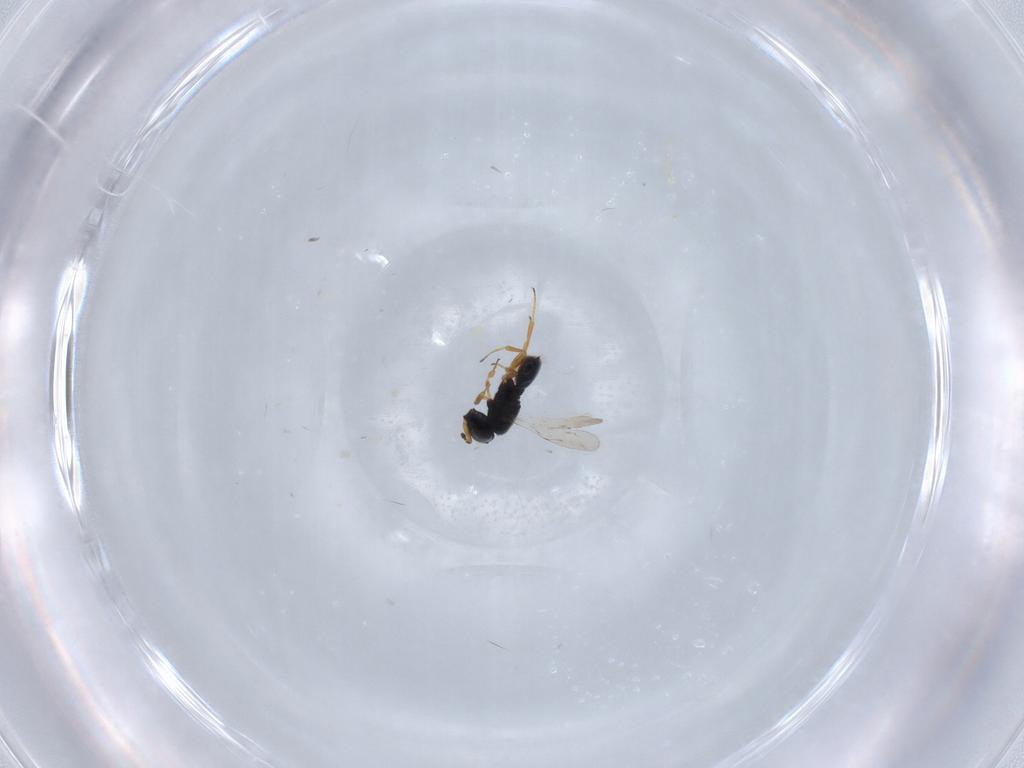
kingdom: Animalia
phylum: Arthropoda
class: Insecta
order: Hymenoptera
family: Scelionidae
